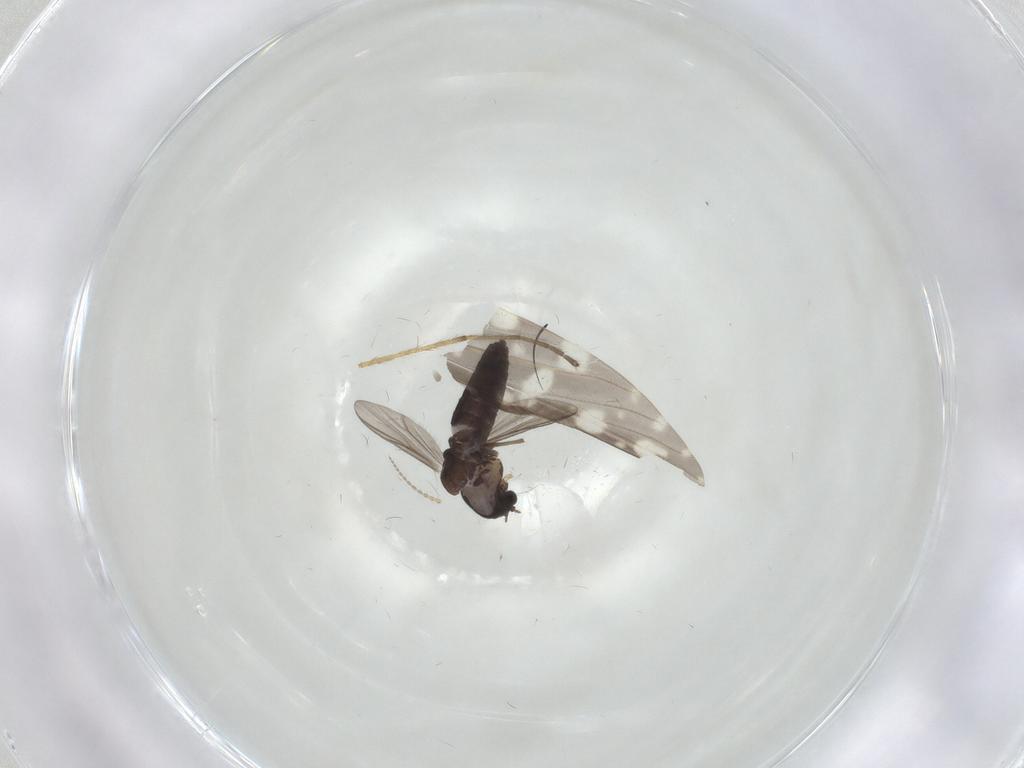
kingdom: Animalia
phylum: Arthropoda
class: Insecta
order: Diptera
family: Chironomidae
